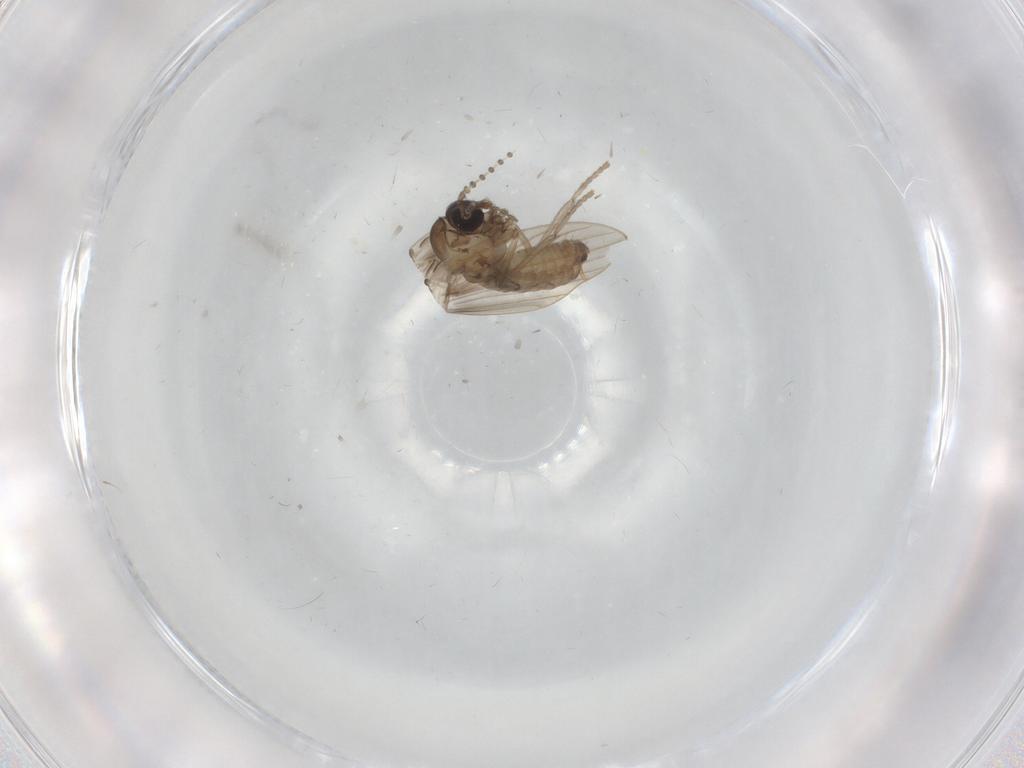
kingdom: Animalia
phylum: Arthropoda
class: Insecta
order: Diptera
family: Psychodidae
